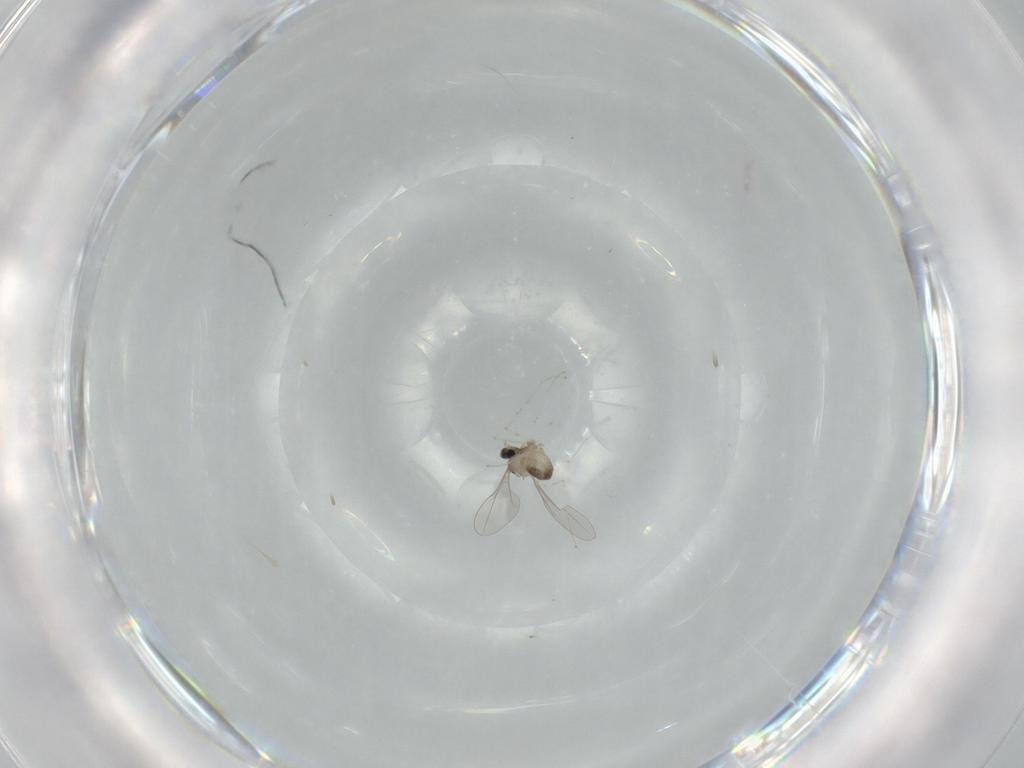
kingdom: Animalia
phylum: Arthropoda
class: Insecta
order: Diptera
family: Cecidomyiidae
